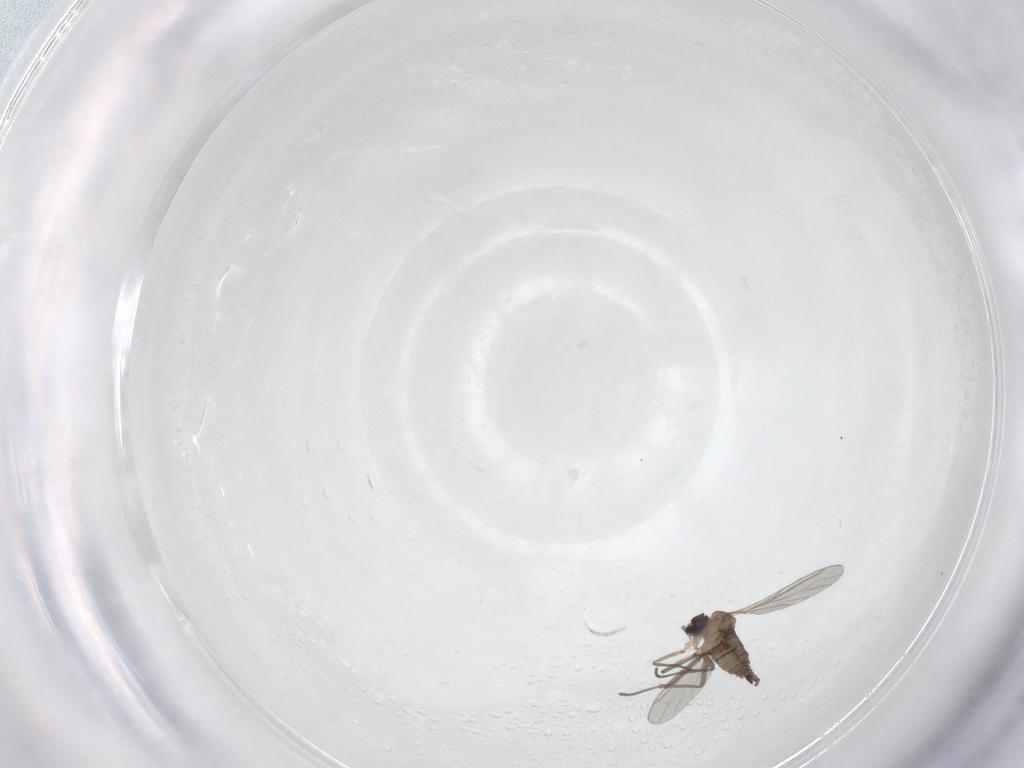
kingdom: Animalia
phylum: Arthropoda
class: Insecta
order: Diptera
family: Sciaridae
